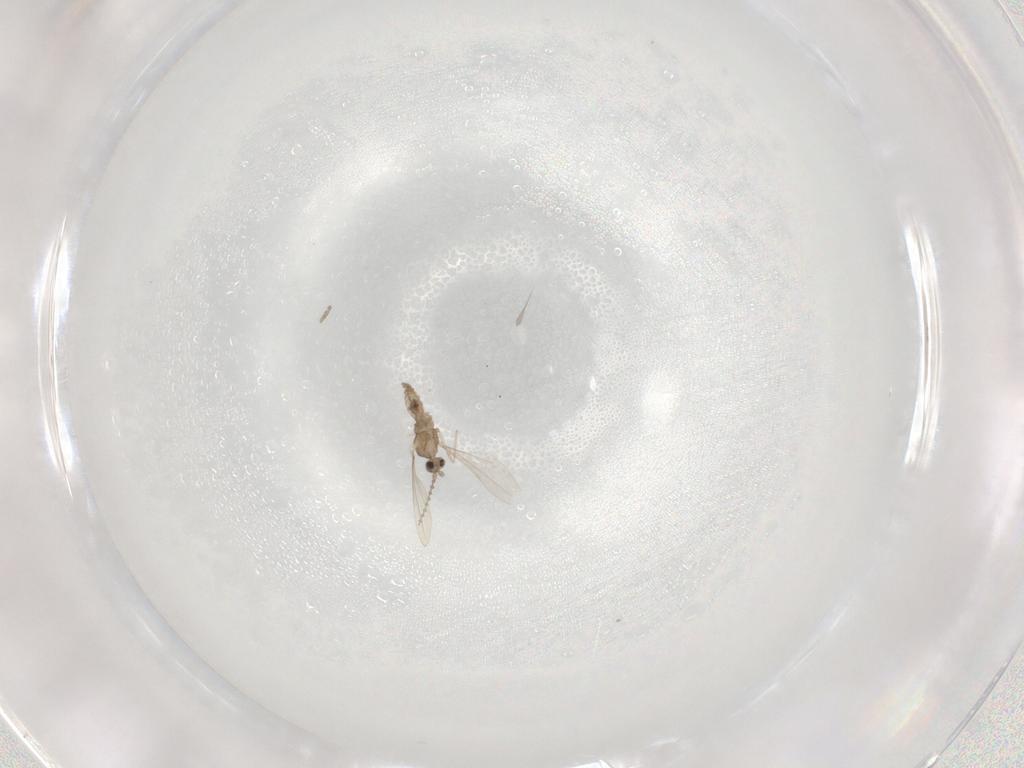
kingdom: Animalia
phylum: Arthropoda
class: Insecta
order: Diptera
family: Cecidomyiidae
